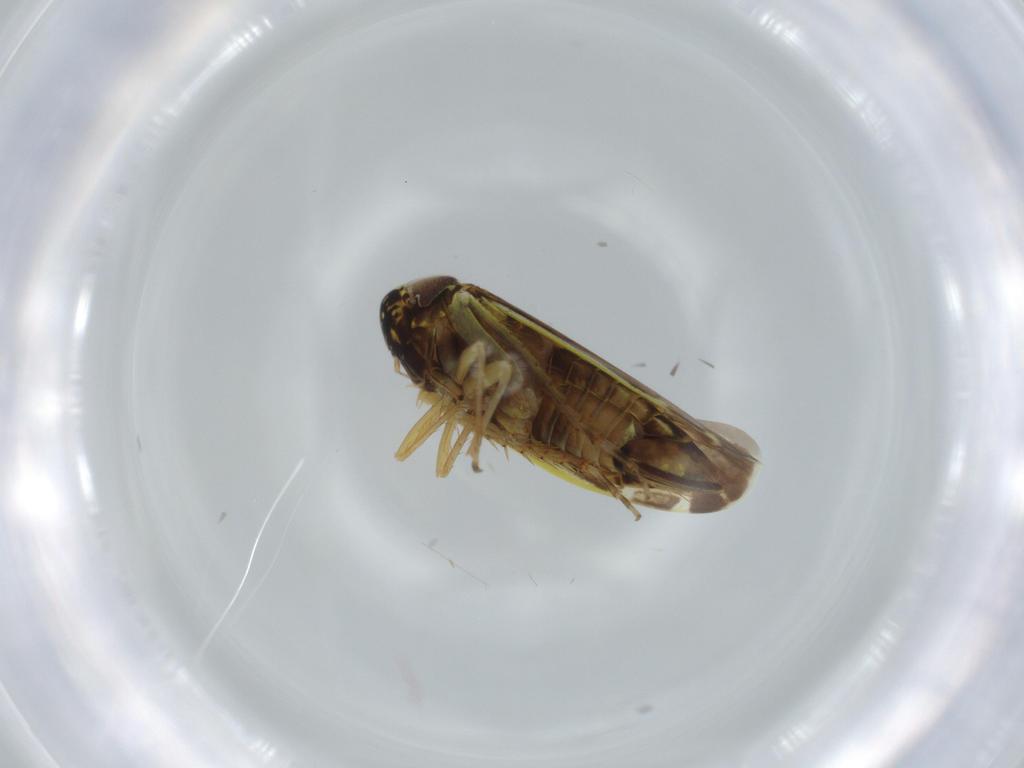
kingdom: Animalia
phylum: Arthropoda
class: Insecta
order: Hemiptera
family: Cicadellidae
